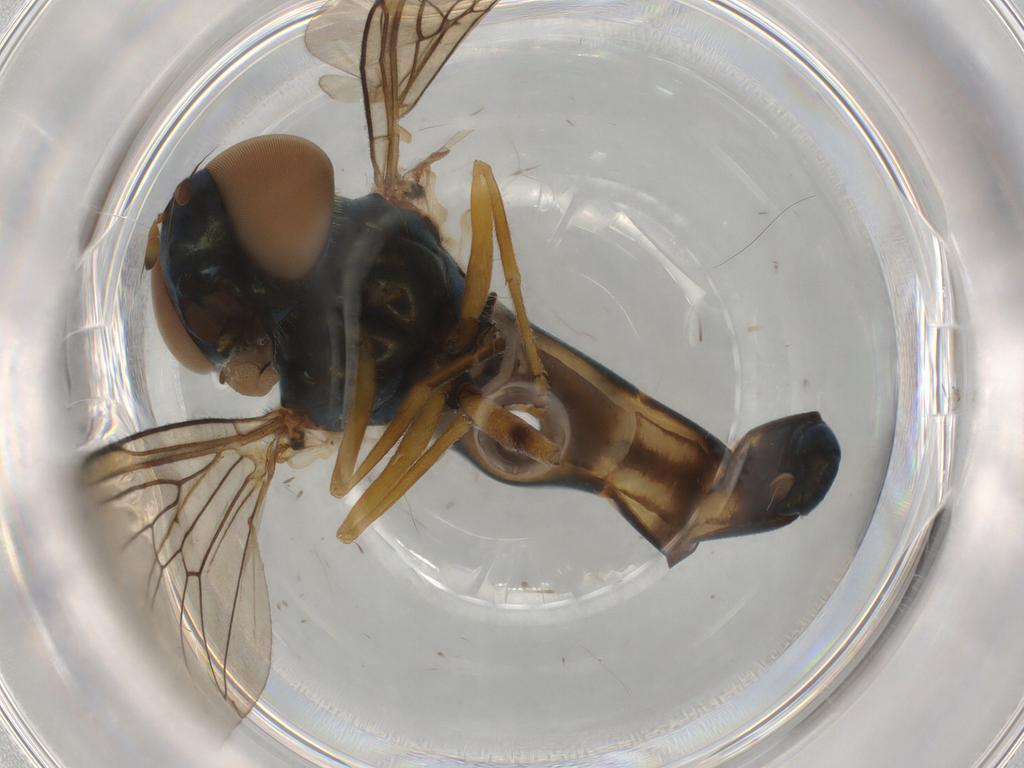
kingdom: Animalia
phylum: Arthropoda
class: Insecta
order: Diptera
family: Syrphidae
